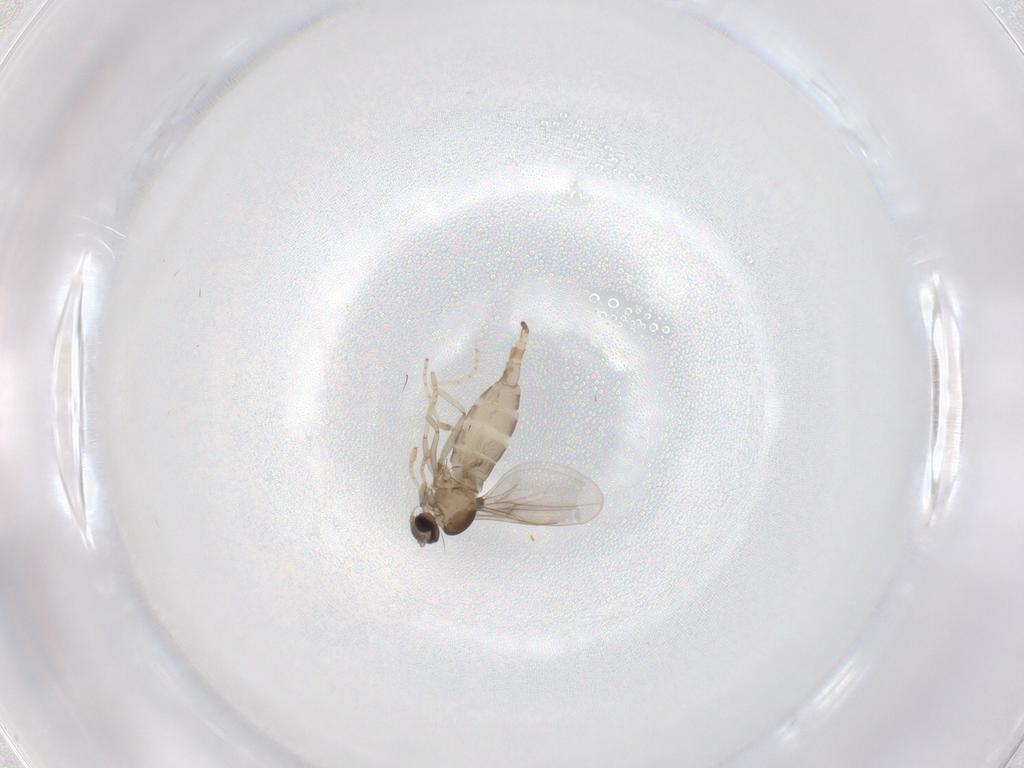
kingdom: Animalia
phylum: Arthropoda
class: Insecta
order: Diptera
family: Cecidomyiidae
